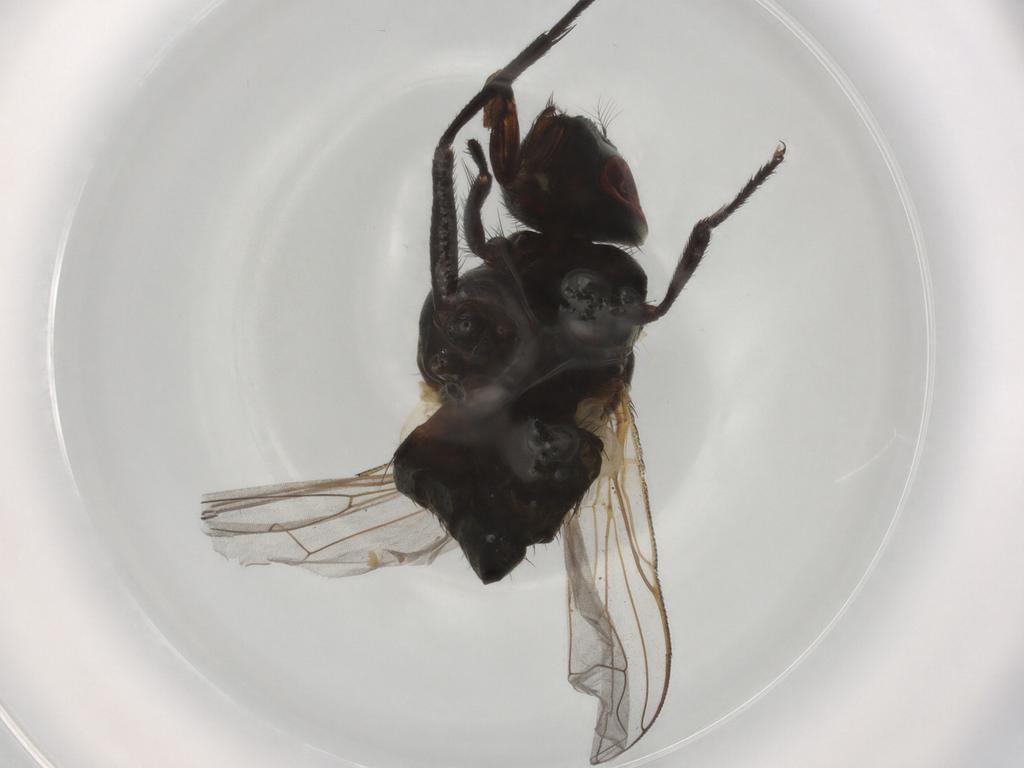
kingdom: Animalia
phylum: Arthropoda
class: Insecta
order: Diptera
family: Muscidae
